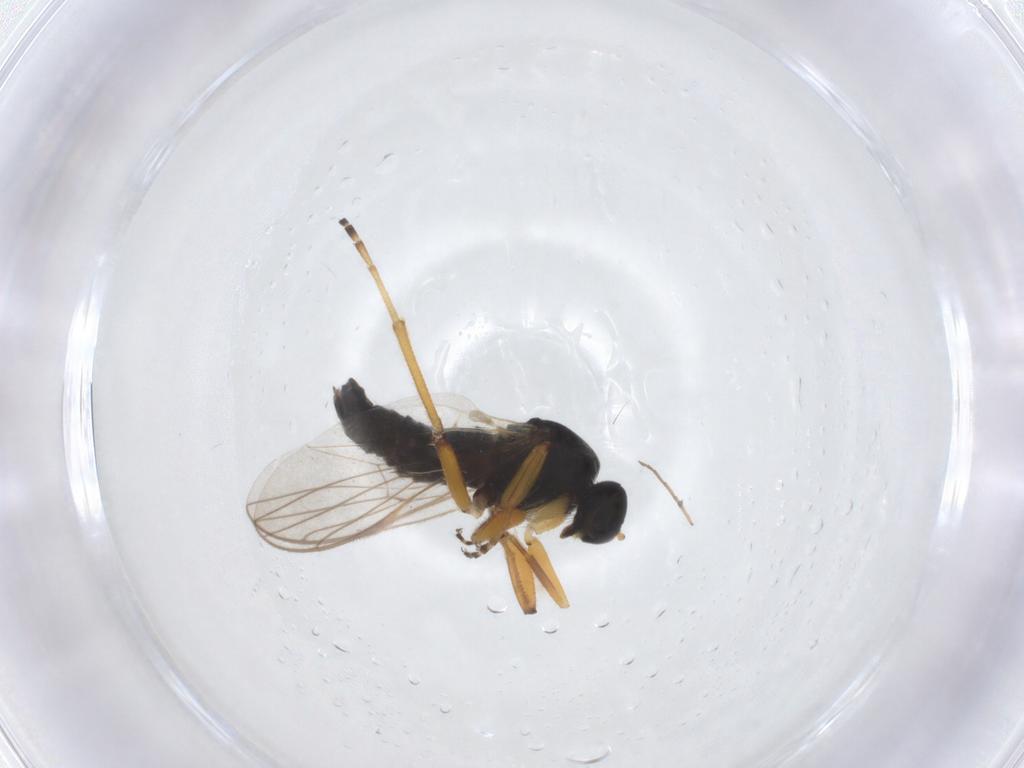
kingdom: Animalia
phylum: Arthropoda
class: Insecta
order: Diptera
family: Hybotidae
